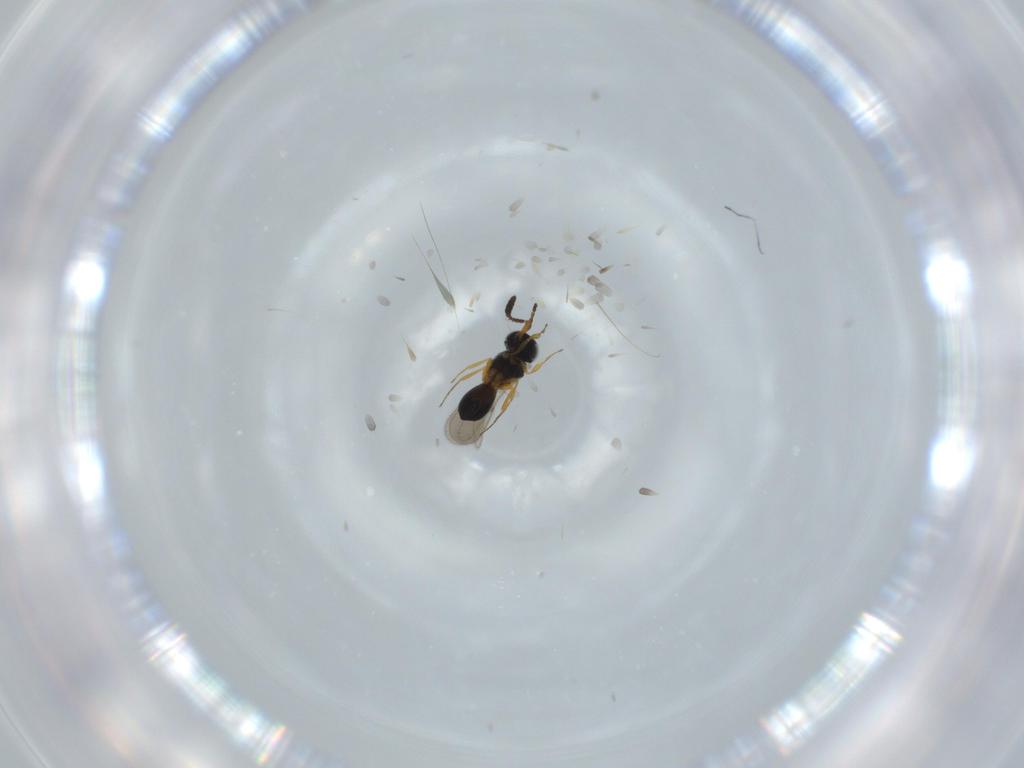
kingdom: Animalia
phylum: Arthropoda
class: Insecta
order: Hymenoptera
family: Scelionidae
